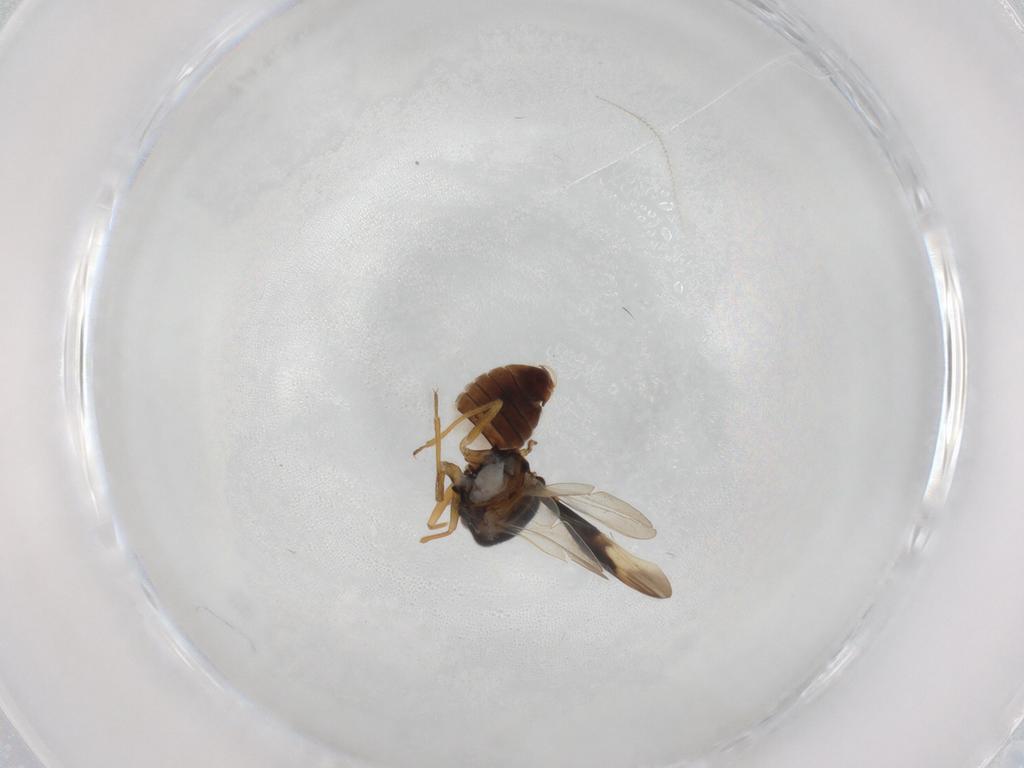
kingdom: Animalia
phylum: Arthropoda
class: Insecta
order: Hemiptera
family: Schizopteridae
